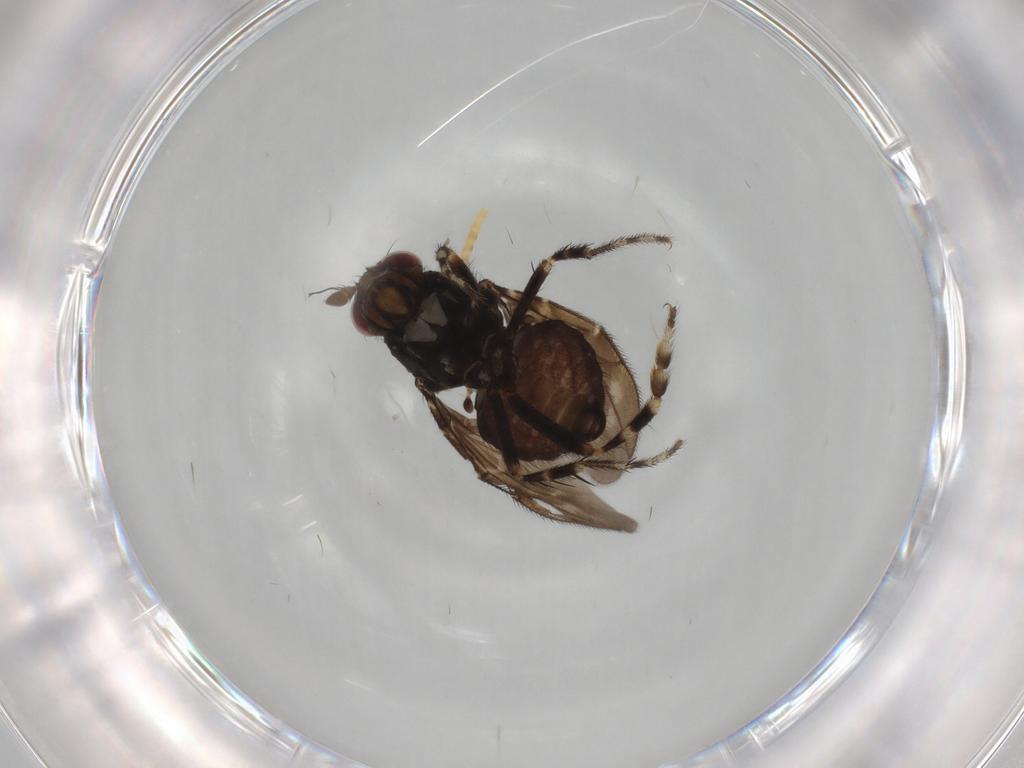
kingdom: Animalia
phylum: Arthropoda
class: Insecta
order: Diptera
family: Sphaeroceridae
